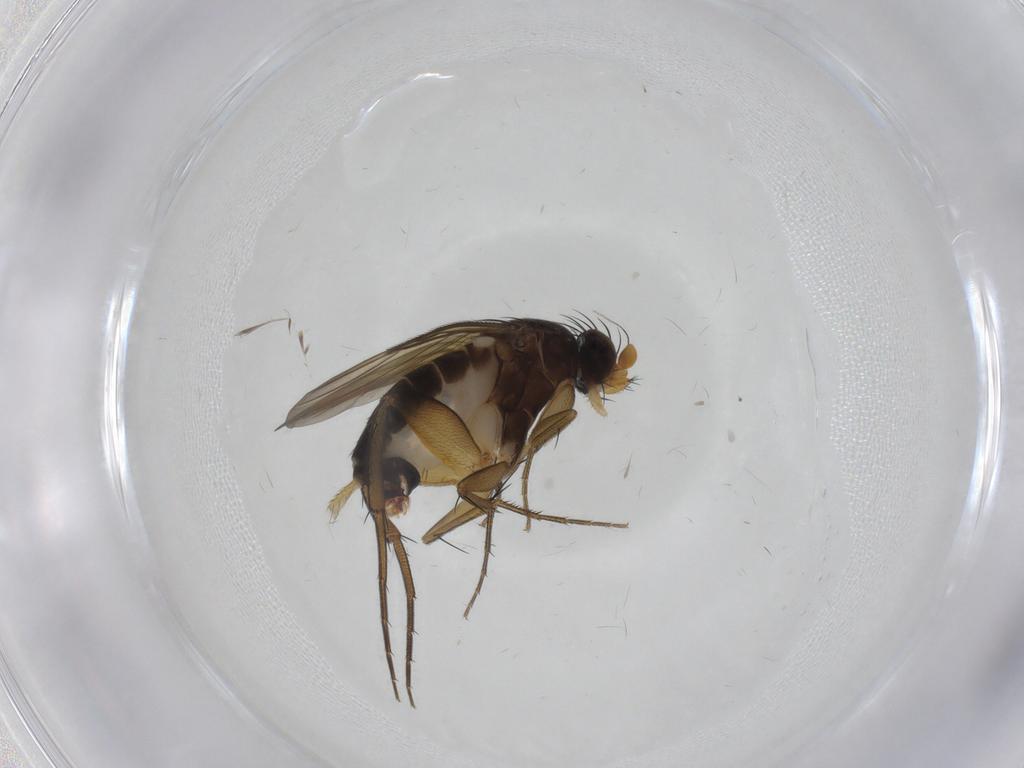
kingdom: Animalia
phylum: Arthropoda
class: Insecta
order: Diptera
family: Phoridae
